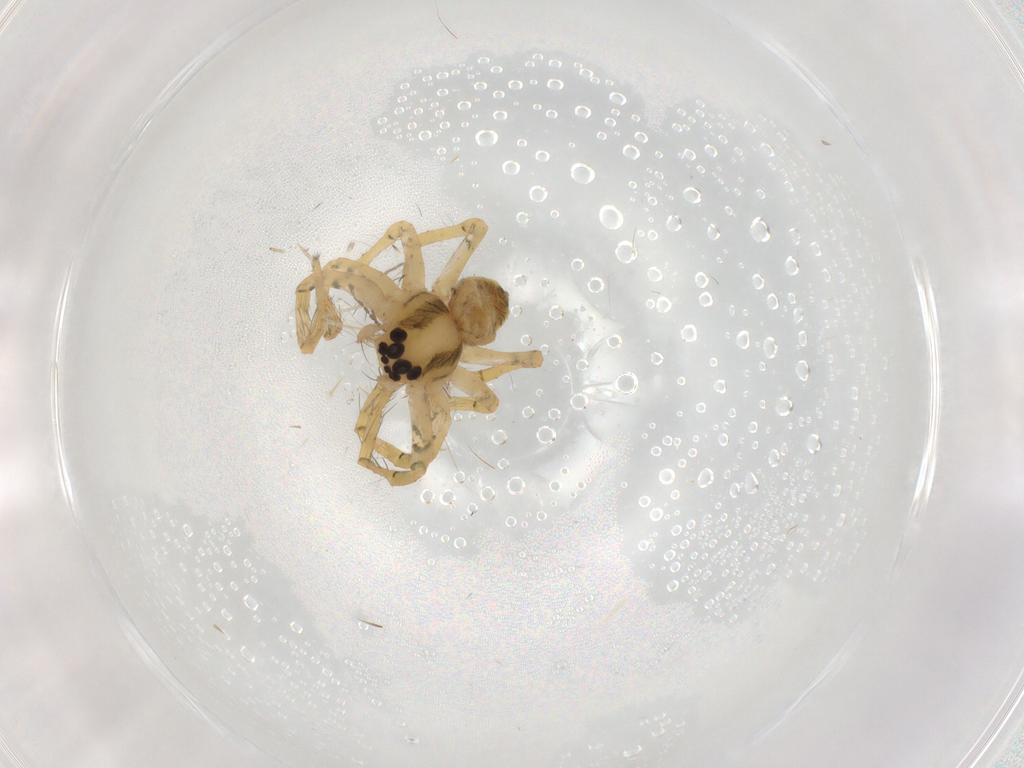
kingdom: Animalia
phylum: Arthropoda
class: Arachnida
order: Araneae
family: Pisauridae
